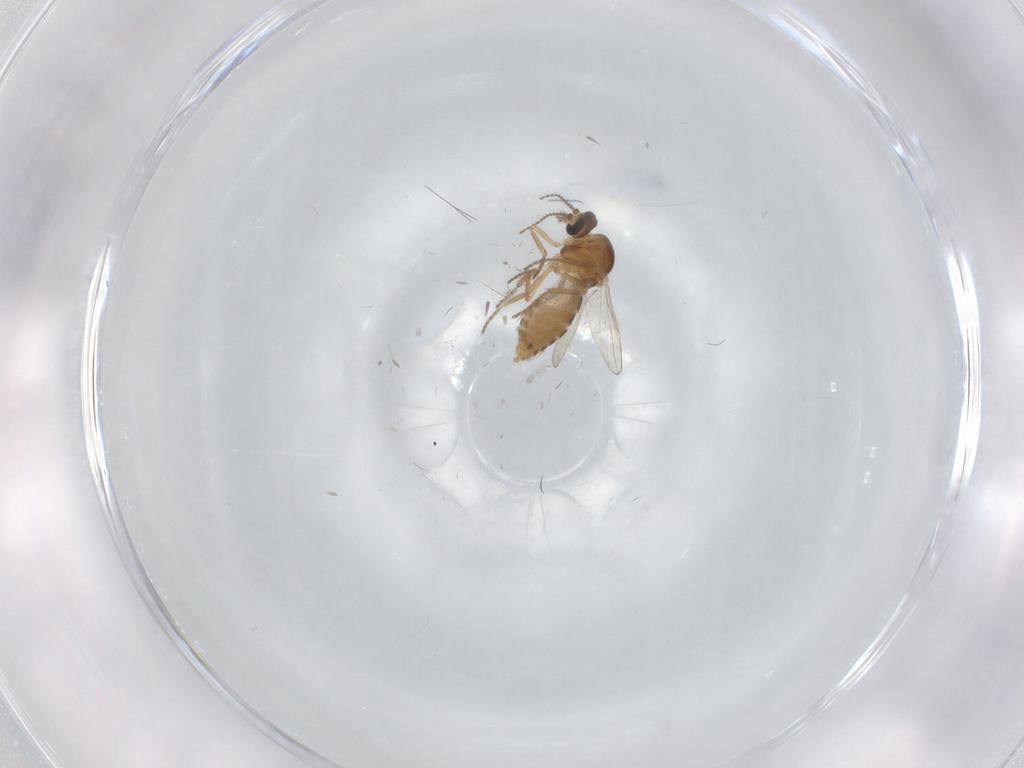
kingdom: Animalia
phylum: Arthropoda
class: Insecta
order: Diptera
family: Ceratopogonidae
